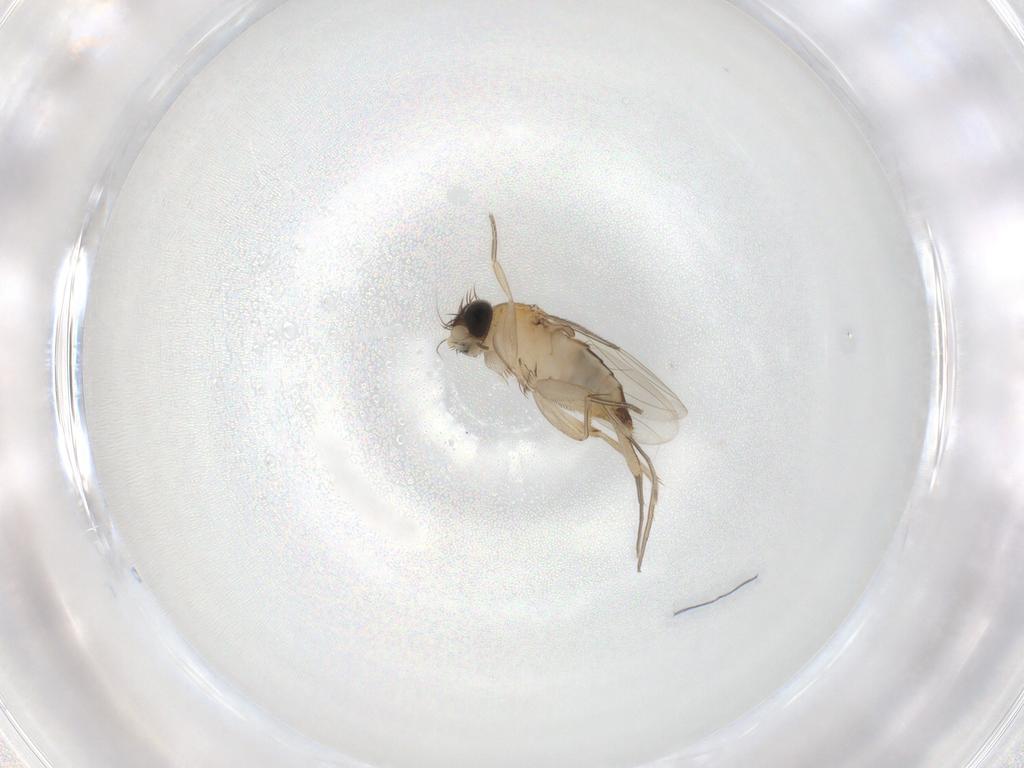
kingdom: Animalia
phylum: Arthropoda
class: Insecta
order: Diptera
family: Phoridae
